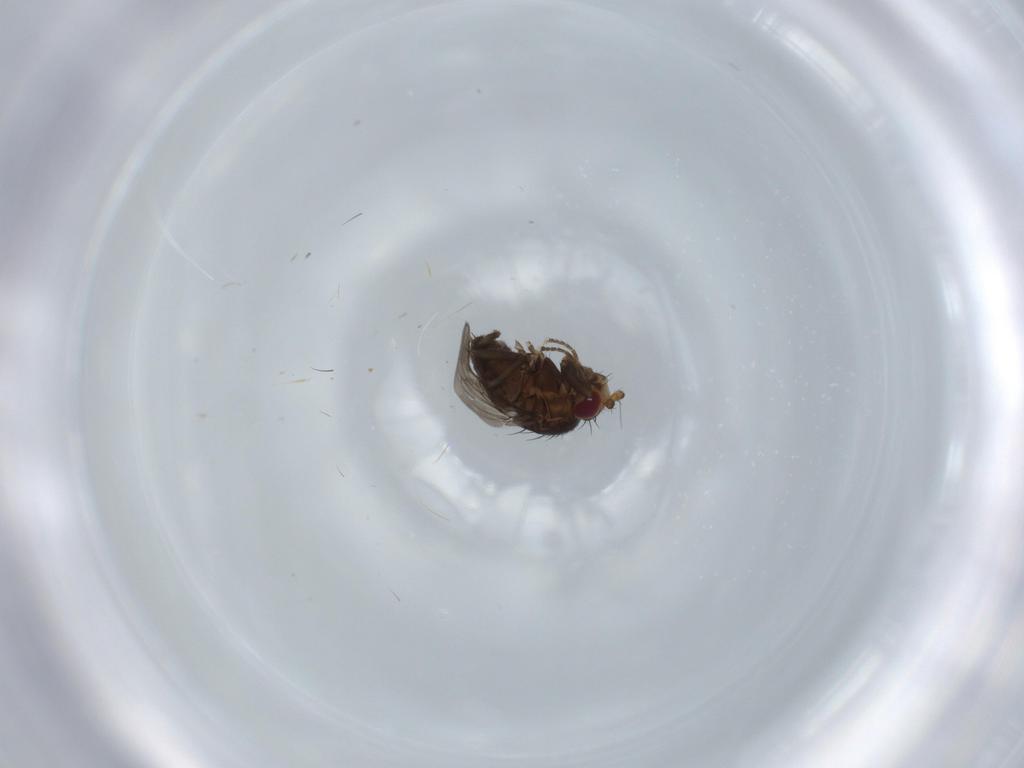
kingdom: Animalia
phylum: Arthropoda
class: Insecta
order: Diptera
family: Sphaeroceridae
